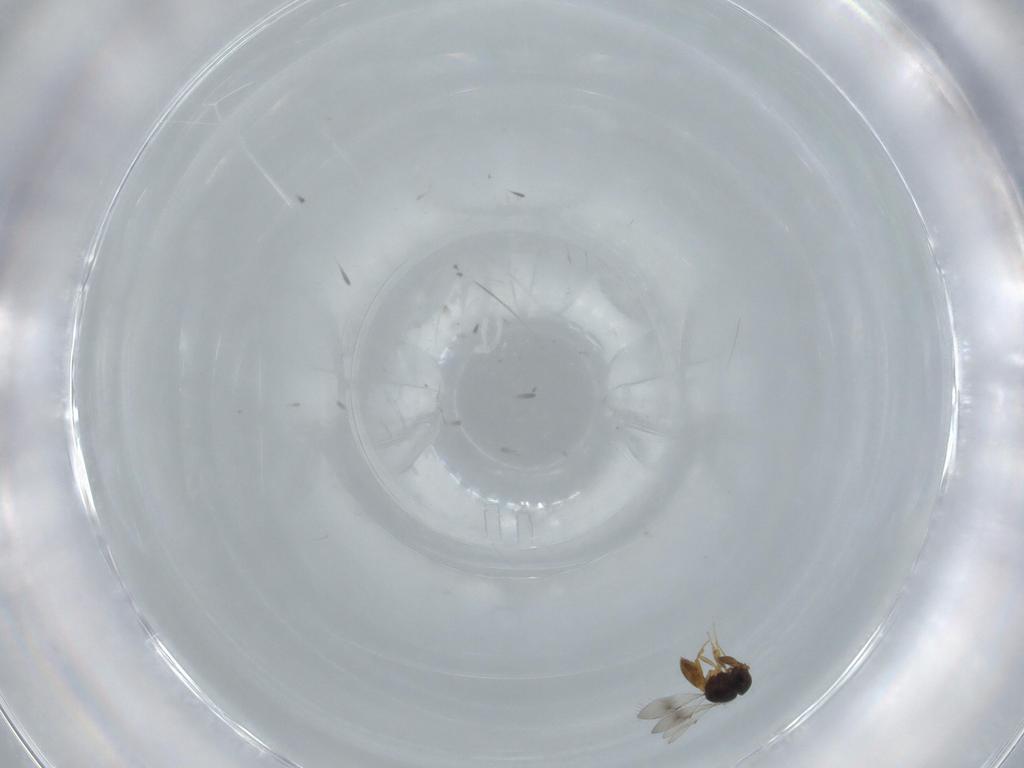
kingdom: Animalia
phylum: Arthropoda
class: Insecta
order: Hymenoptera
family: Scelionidae
